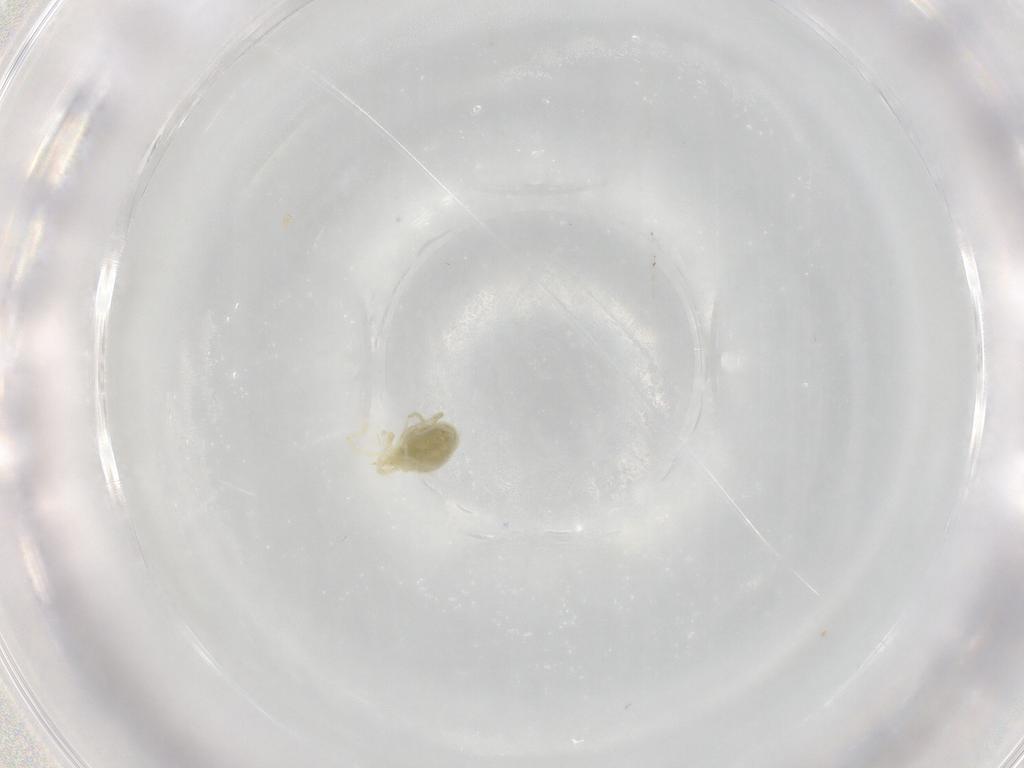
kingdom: Animalia
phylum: Arthropoda
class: Arachnida
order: Trombidiformes
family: Erythraeidae
